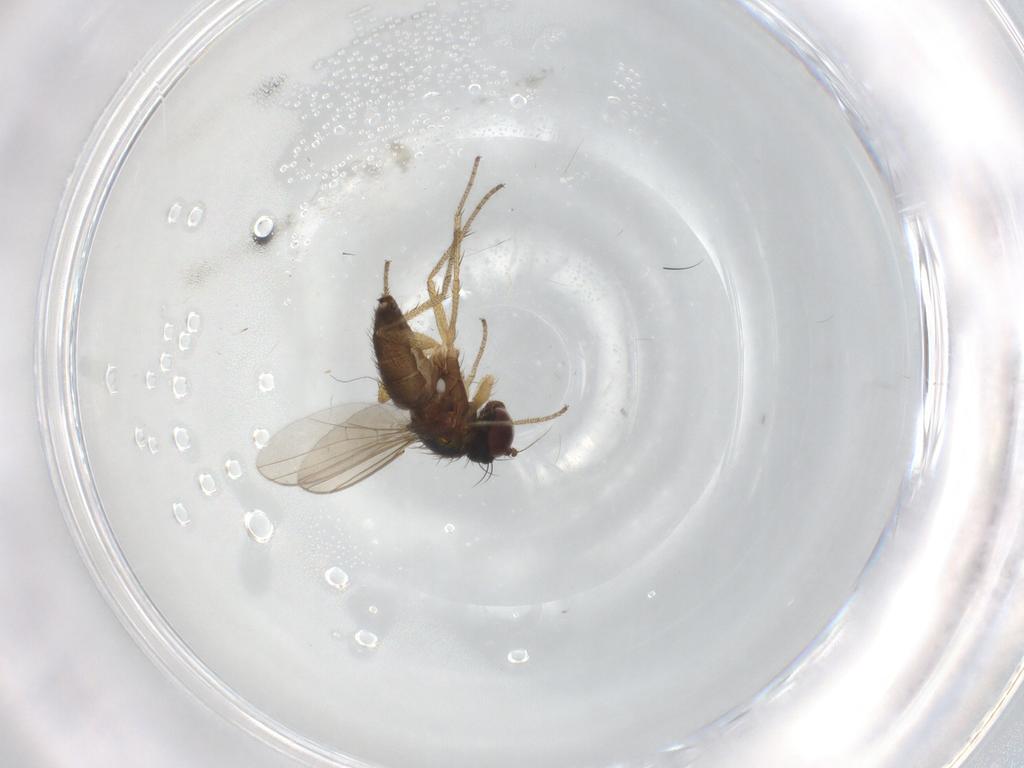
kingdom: Animalia
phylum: Arthropoda
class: Insecta
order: Diptera
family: Dolichopodidae
